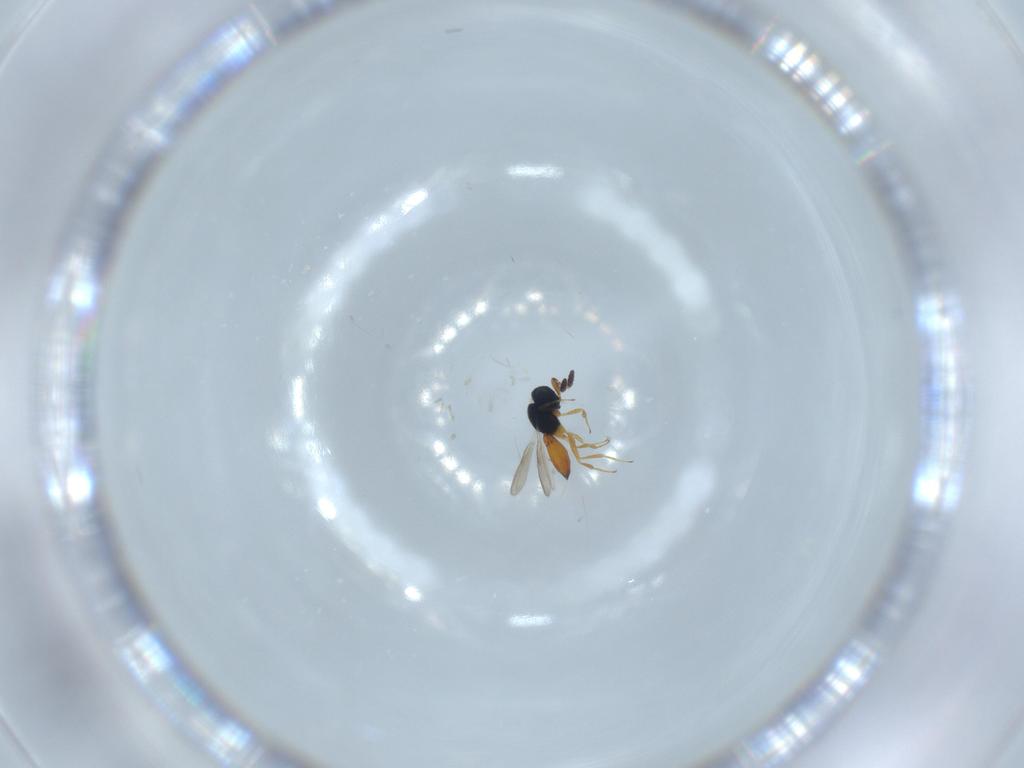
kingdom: Animalia
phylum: Arthropoda
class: Insecta
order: Hymenoptera
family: Scelionidae
